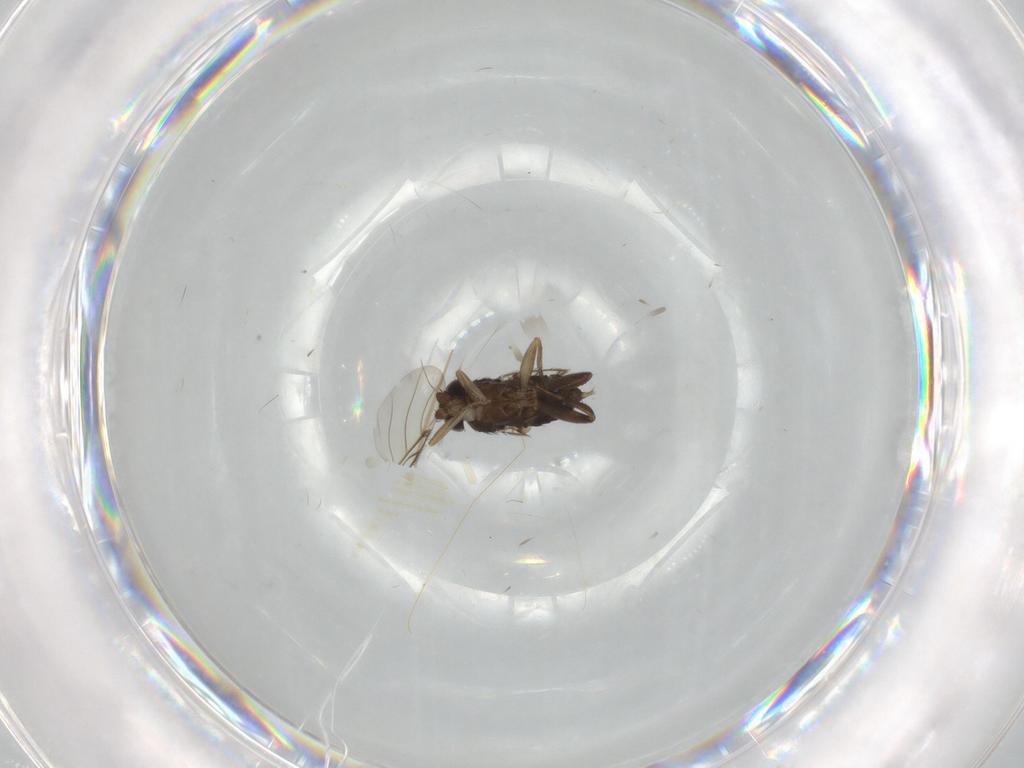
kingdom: Animalia
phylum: Arthropoda
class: Insecta
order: Diptera
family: Phoridae
